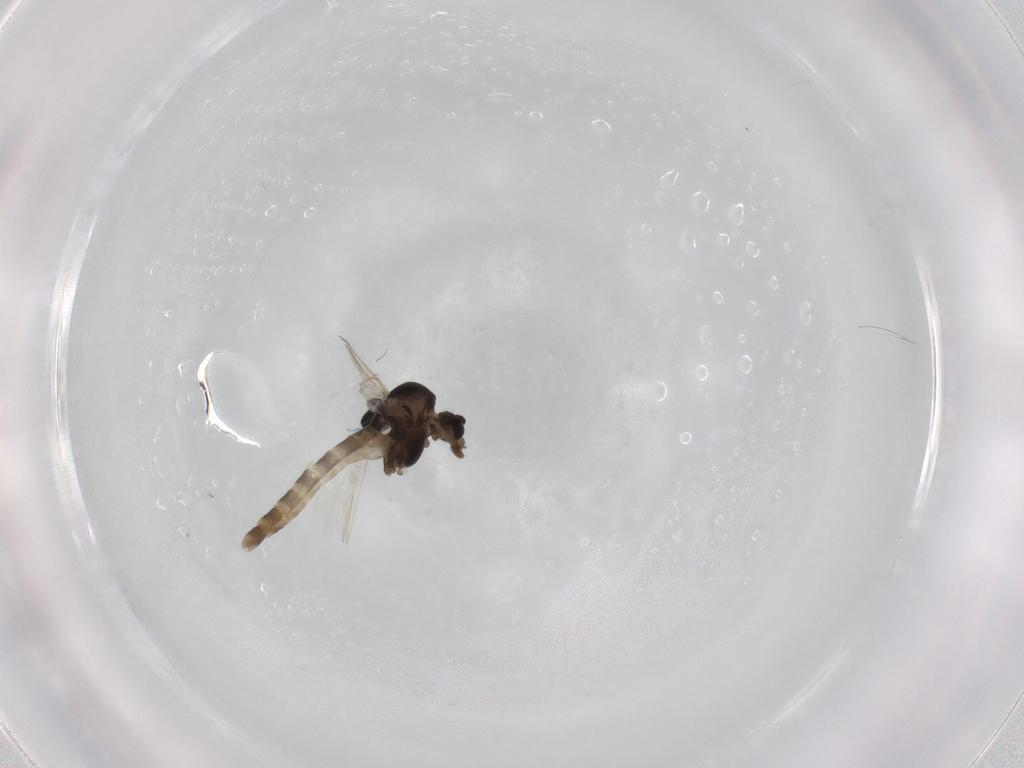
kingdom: Animalia
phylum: Arthropoda
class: Insecta
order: Diptera
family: Chironomidae
